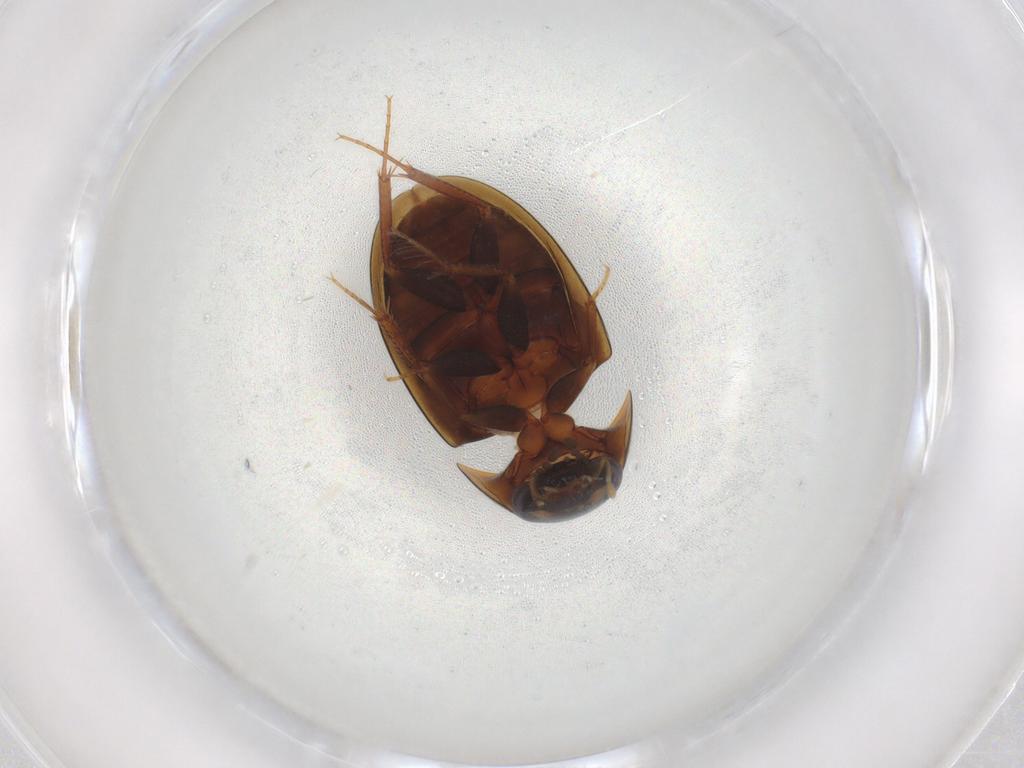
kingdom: Animalia
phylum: Arthropoda
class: Insecta
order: Coleoptera
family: Hydrophilidae
